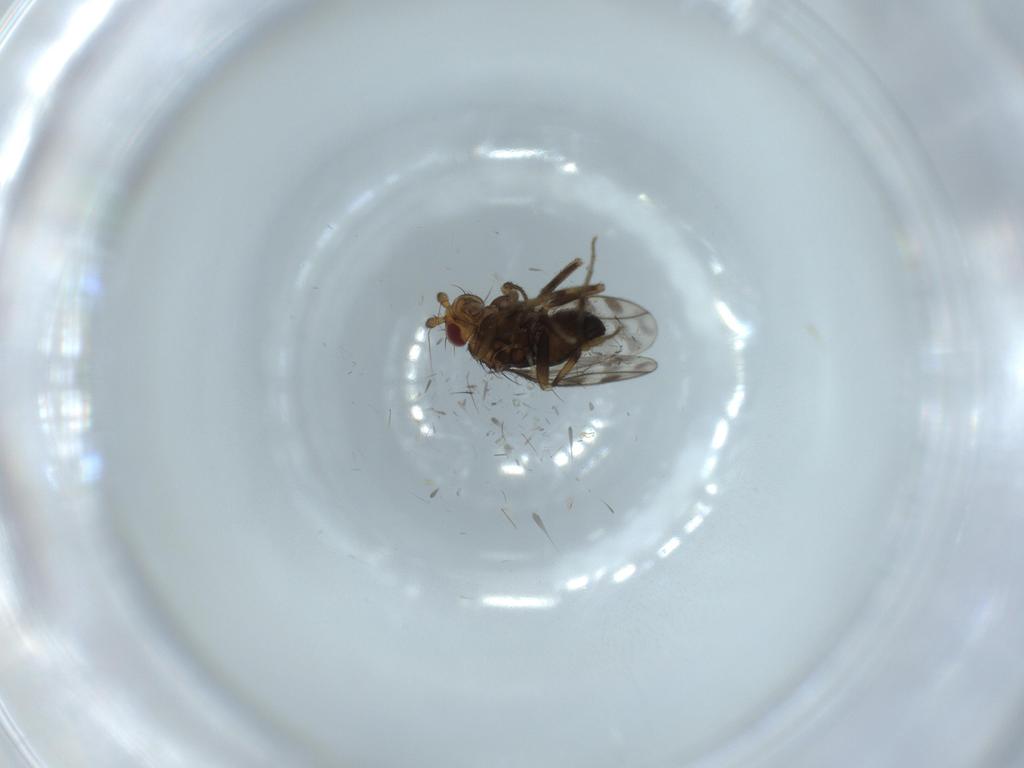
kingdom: Animalia
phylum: Arthropoda
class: Insecta
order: Diptera
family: Sphaeroceridae
